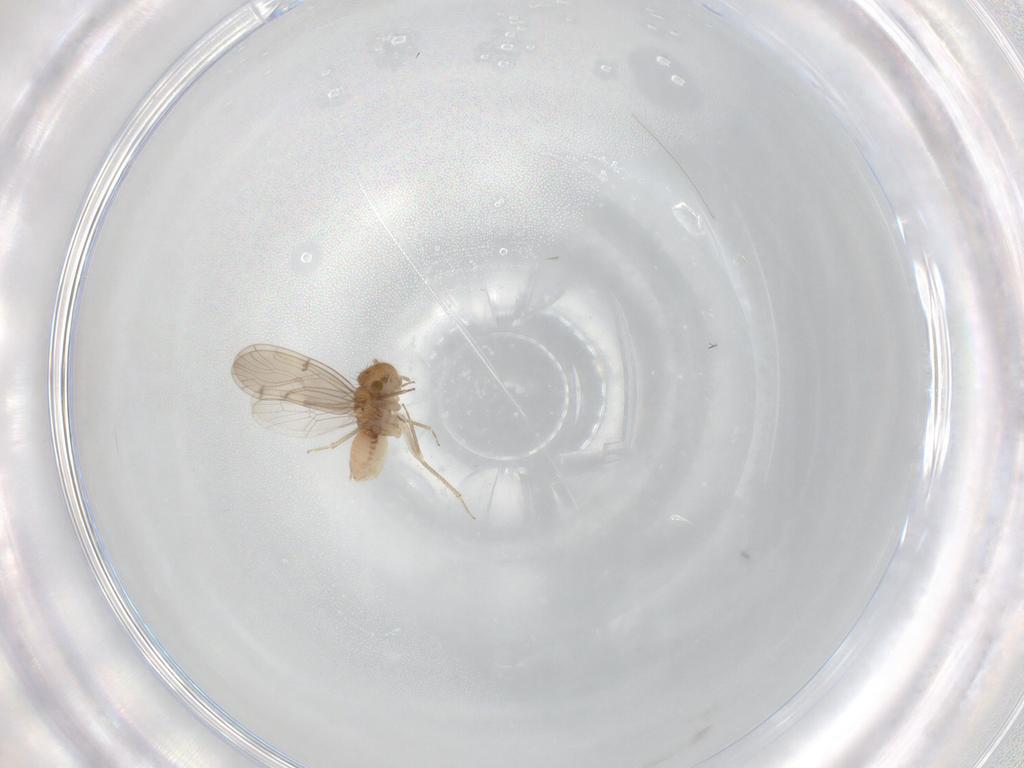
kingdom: Animalia
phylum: Arthropoda
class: Insecta
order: Psocodea
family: Ectopsocidae
